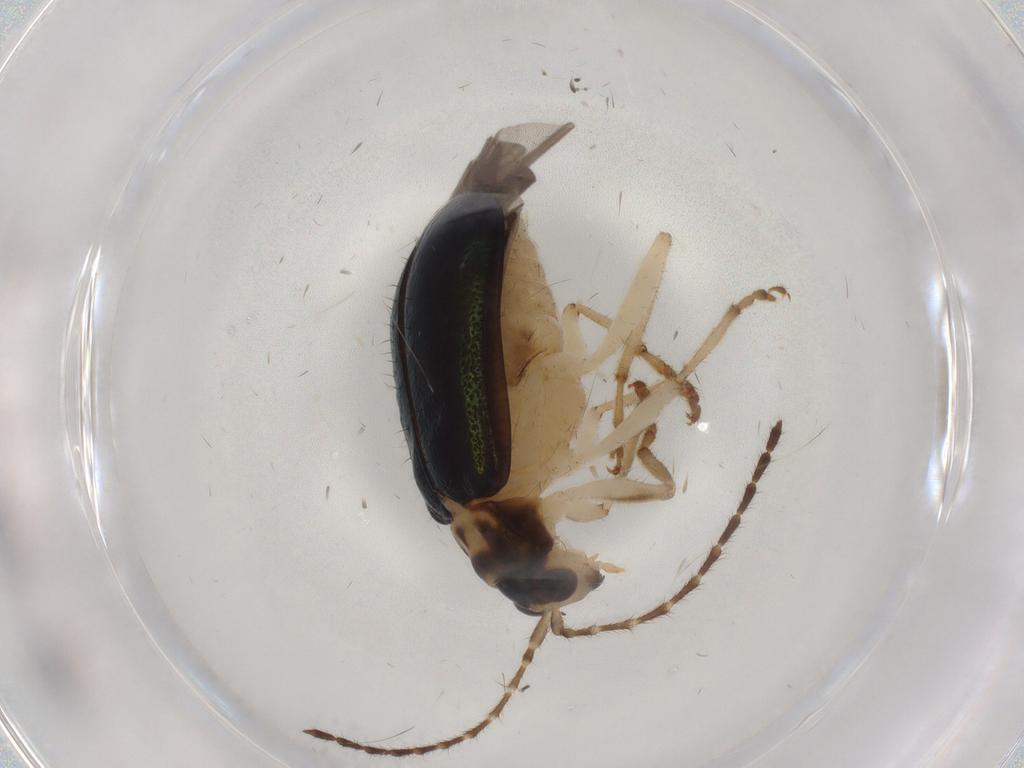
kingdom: Animalia
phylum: Arthropoda
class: Insecta
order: Coleoptera
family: Chrysomelidae
